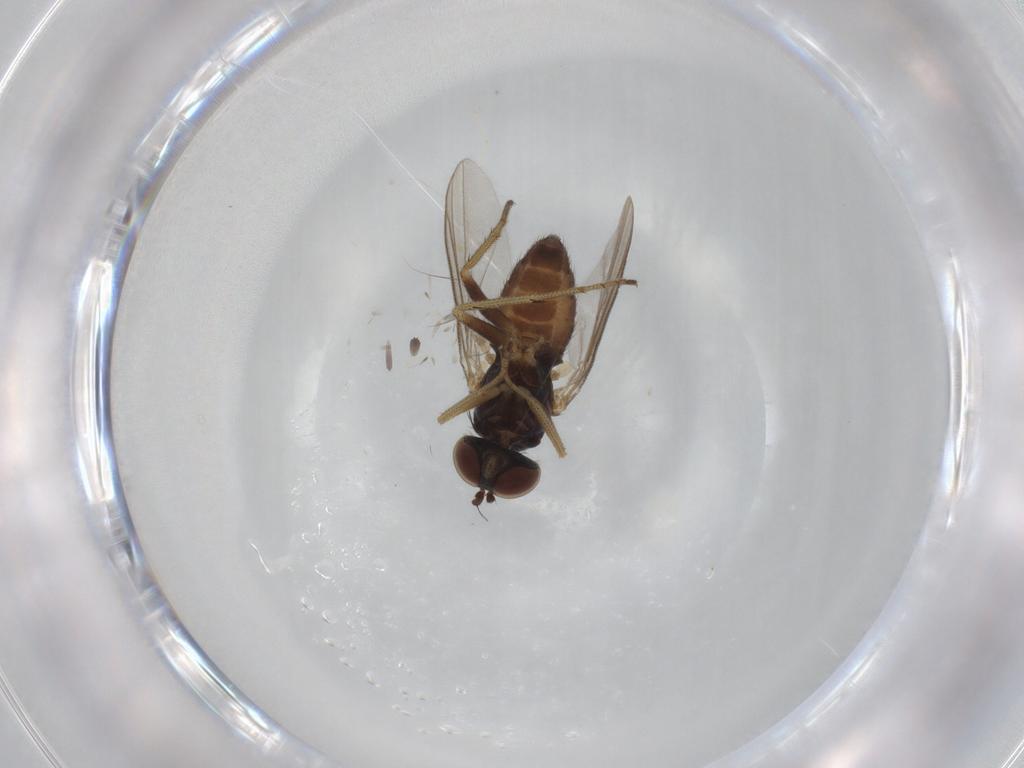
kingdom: Animalia
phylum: Arthropoda
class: Insecta
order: Diptera
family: Dolichopodidae
